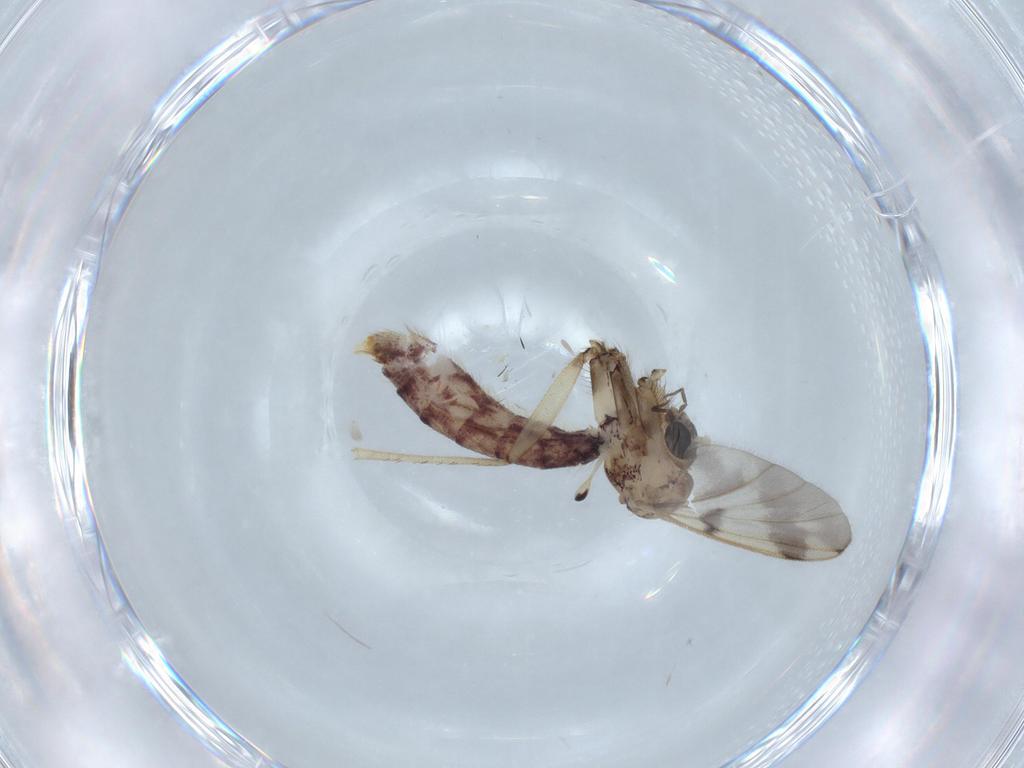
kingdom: Animalia
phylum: Arthropoda
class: Insecta
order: Diptera
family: Mycetophilidae
